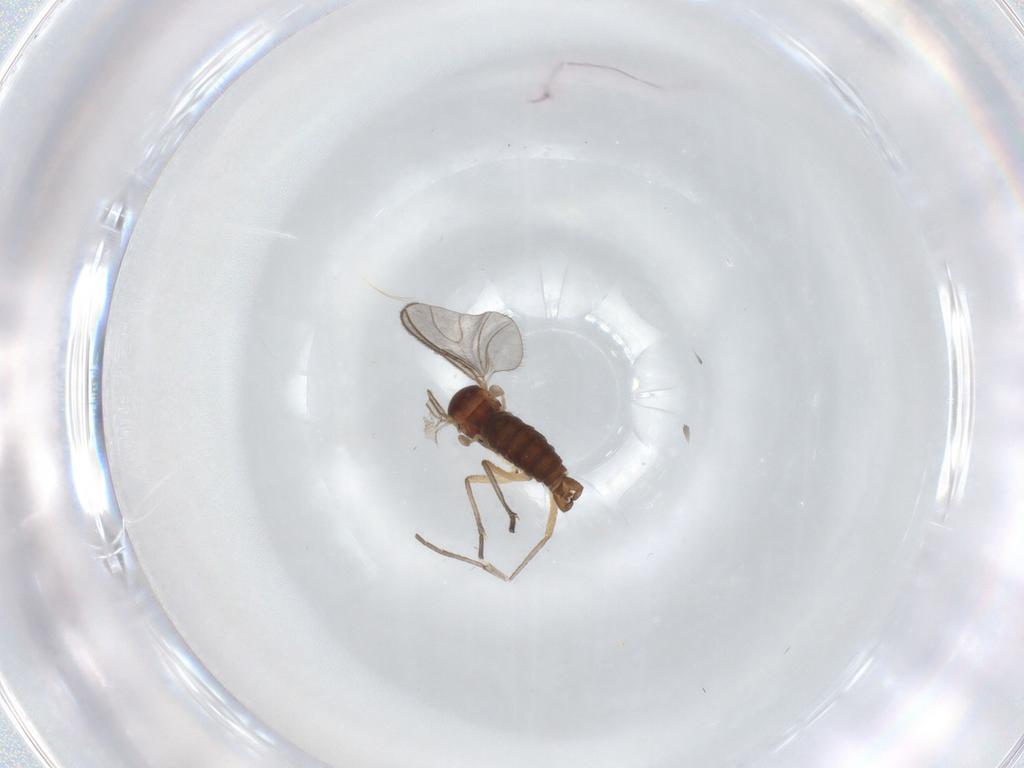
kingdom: Animalia
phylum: Arthropoda
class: Insecta
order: Diptera
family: Sciaridae
